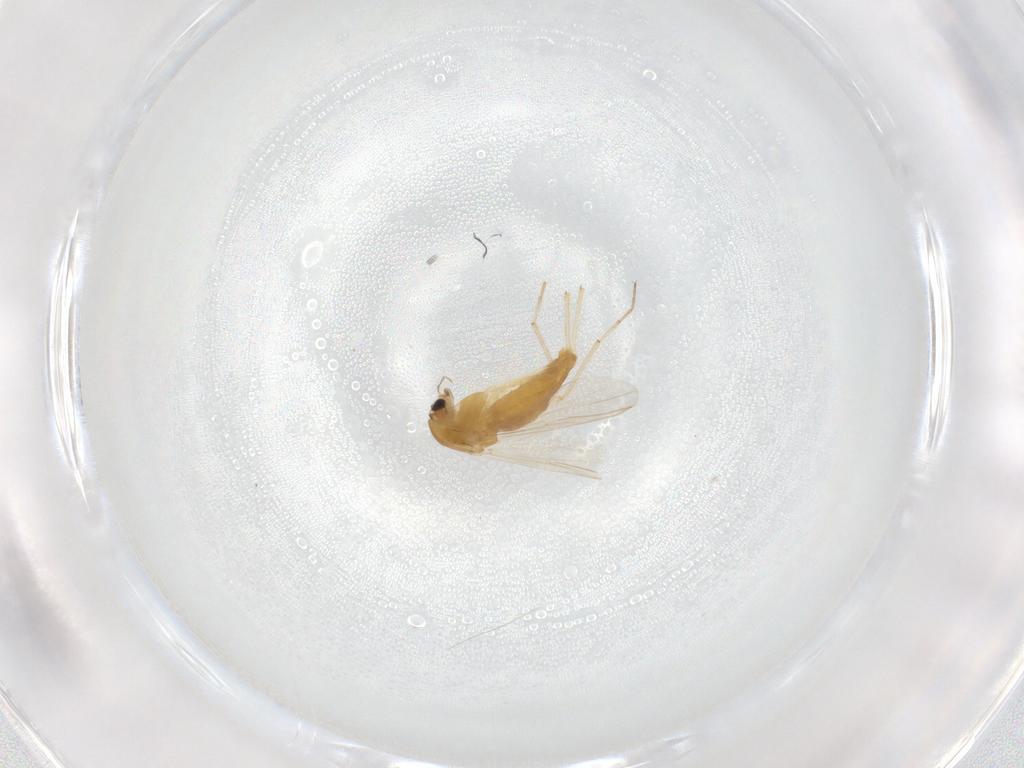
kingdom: Animalia
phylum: Arthropoda
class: Insecta
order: Diptera
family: Chironomidae
